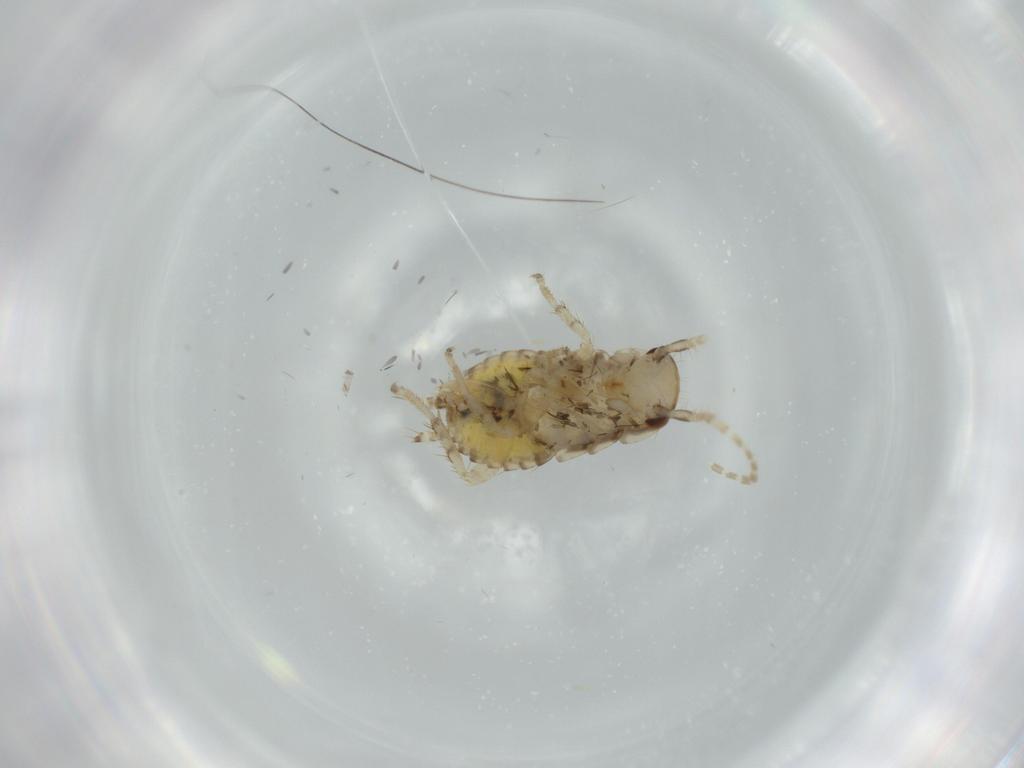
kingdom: Animalia
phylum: Arthropoda
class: Insecta
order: Blattodea
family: Ectobiidae
